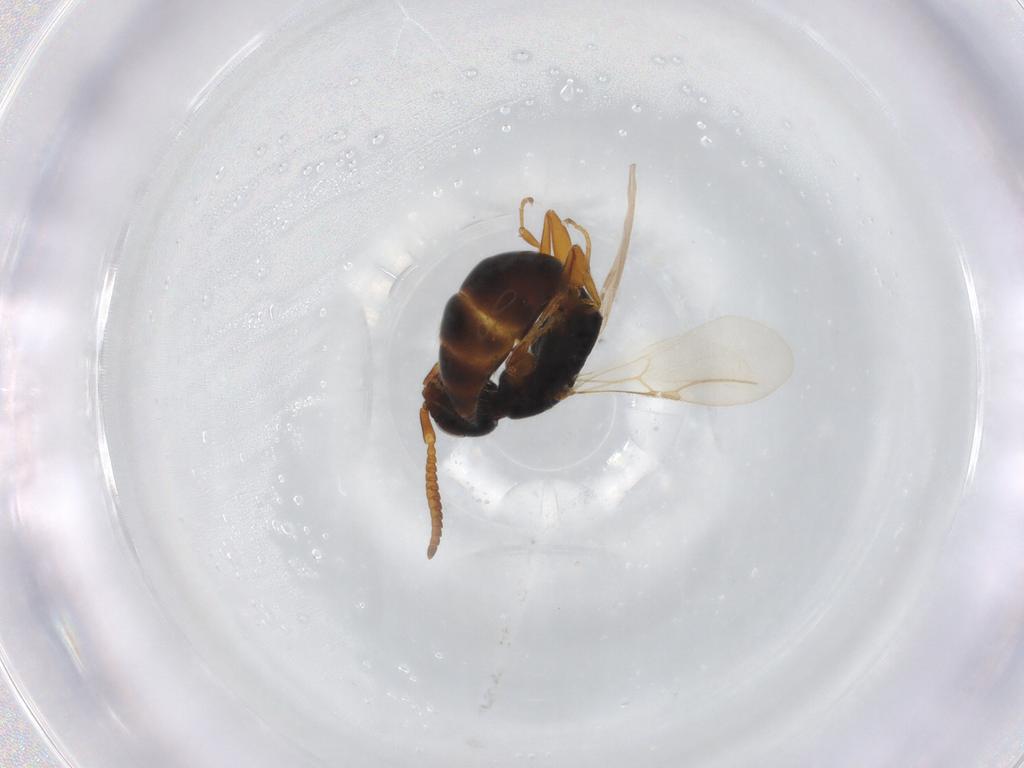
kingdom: Animalia
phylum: Arthropoda
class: Insecta
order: Hymenoptera
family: Bethylidae
